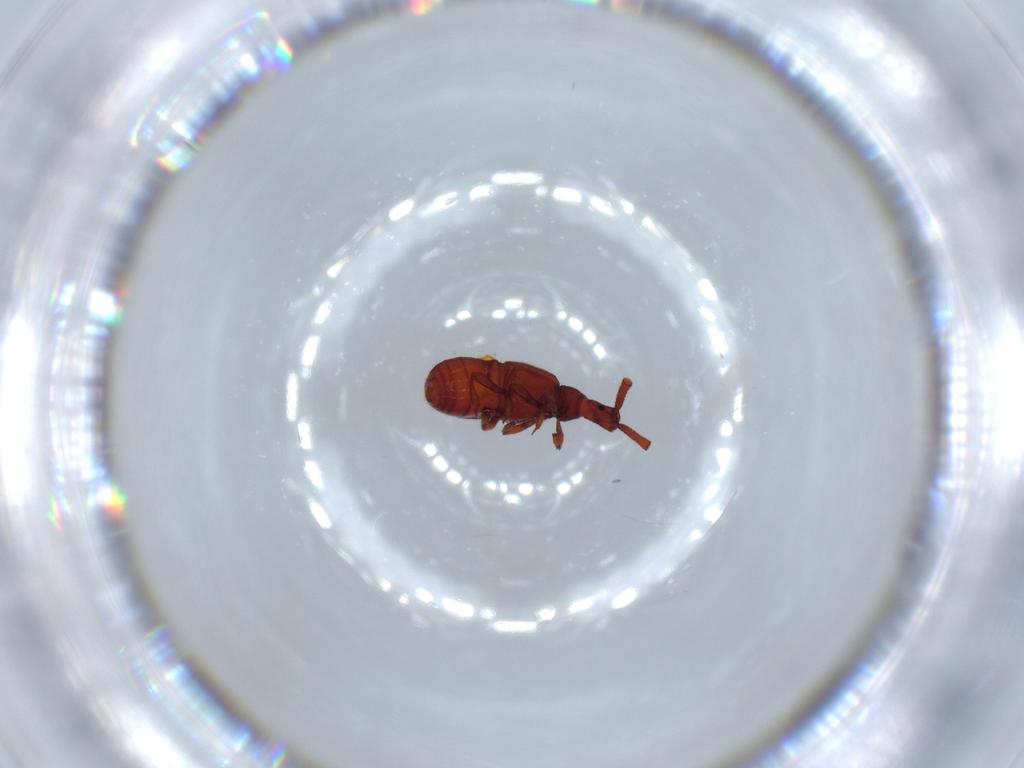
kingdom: Animalia
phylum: Arthropoda
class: Insecta
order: Coleoptera
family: Staphylinidae
